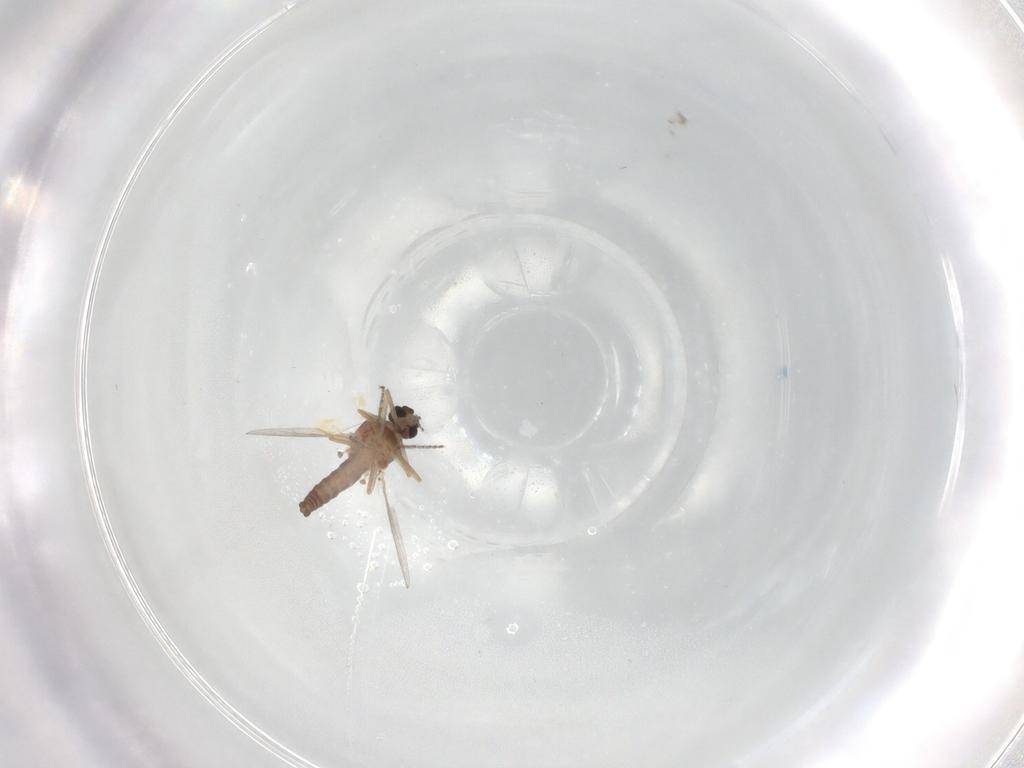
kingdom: Animalia
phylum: Arthropoda
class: Insecta
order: Diptera
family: Ceratopogonidae
